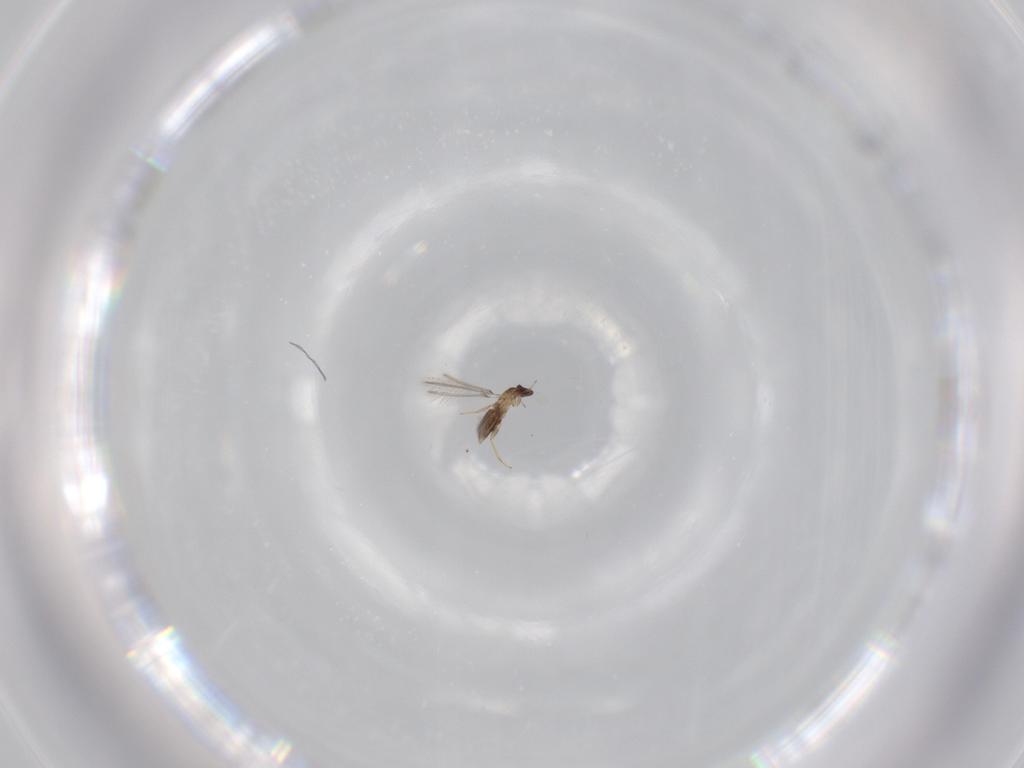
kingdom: Animalia
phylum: Arthropoda
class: Insecta
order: Hymenoptera
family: Mymaridae
